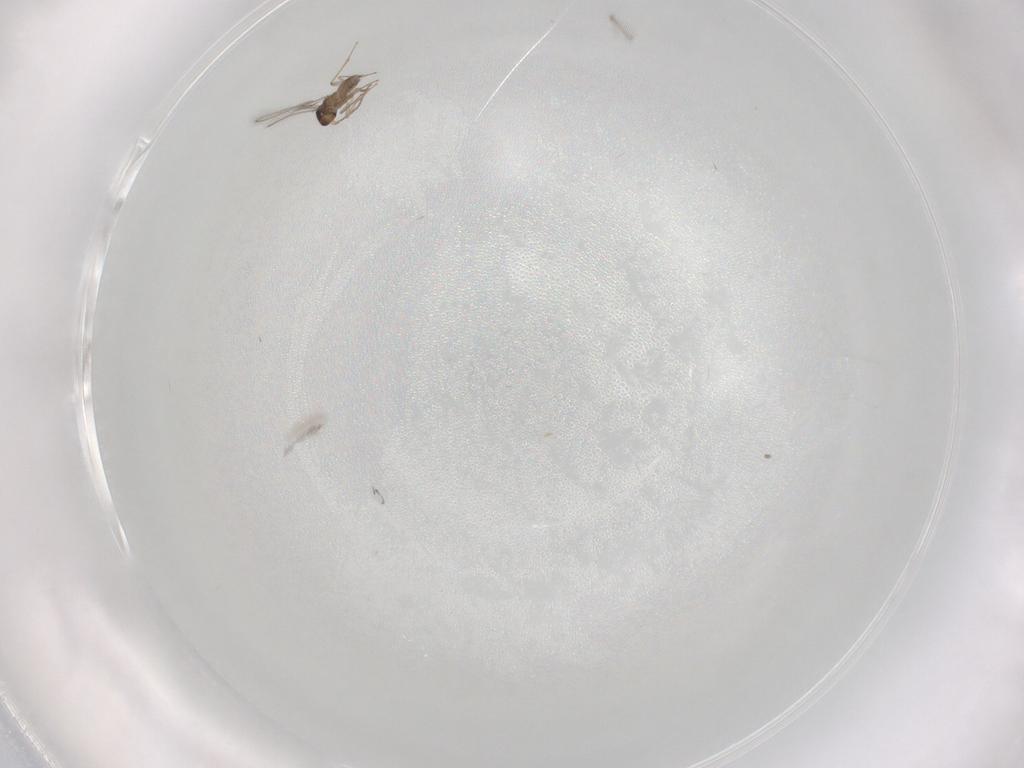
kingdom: Animalia
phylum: Arthropoda
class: Insecta
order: Hymenoptera
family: Mymaridae
